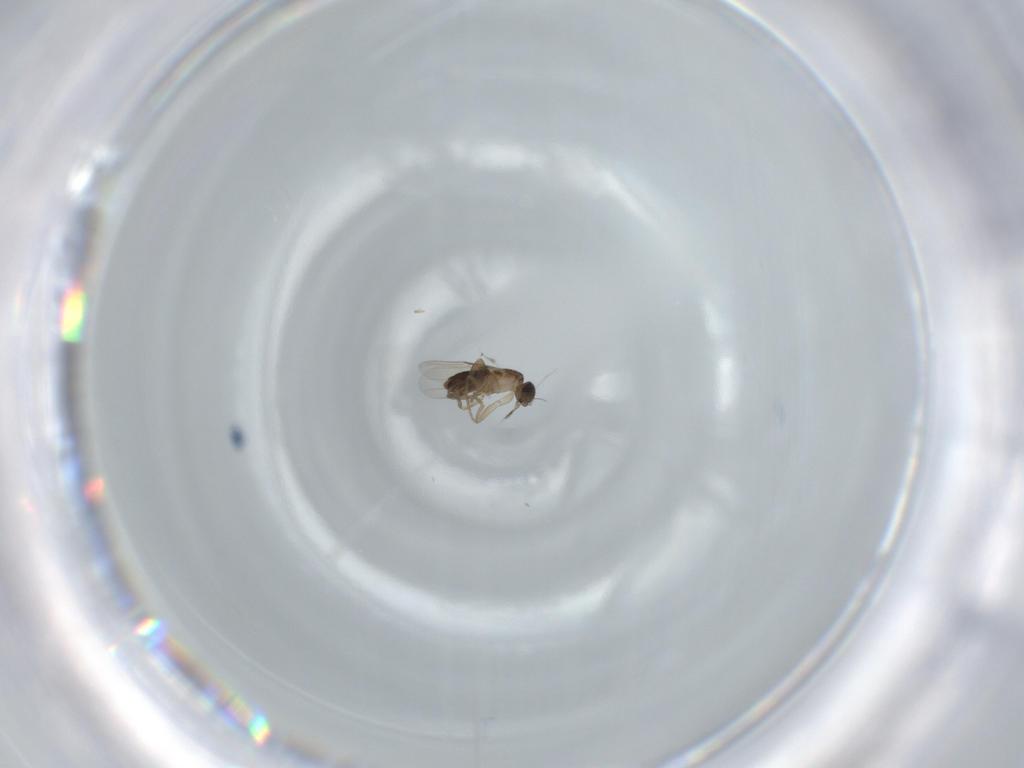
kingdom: Animalia
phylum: Arthropoda
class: Insecta
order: Diptera
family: Phoridae
